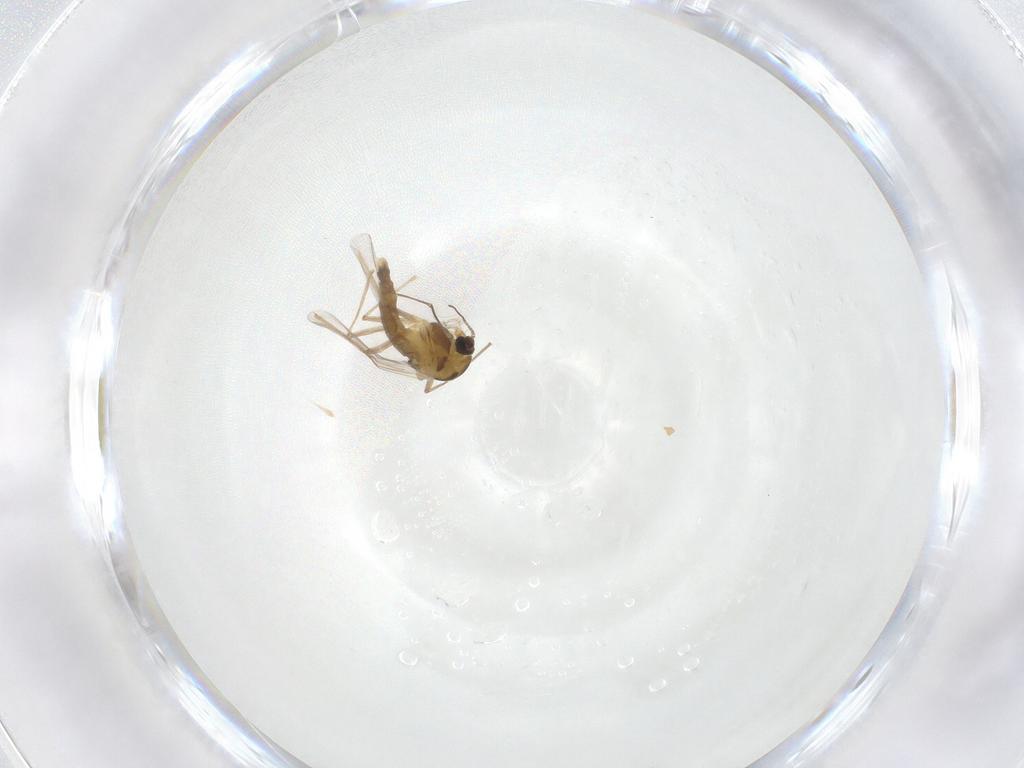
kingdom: Animalia
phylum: Arthropoda
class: Insecta
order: Diptera
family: Chironomidae
